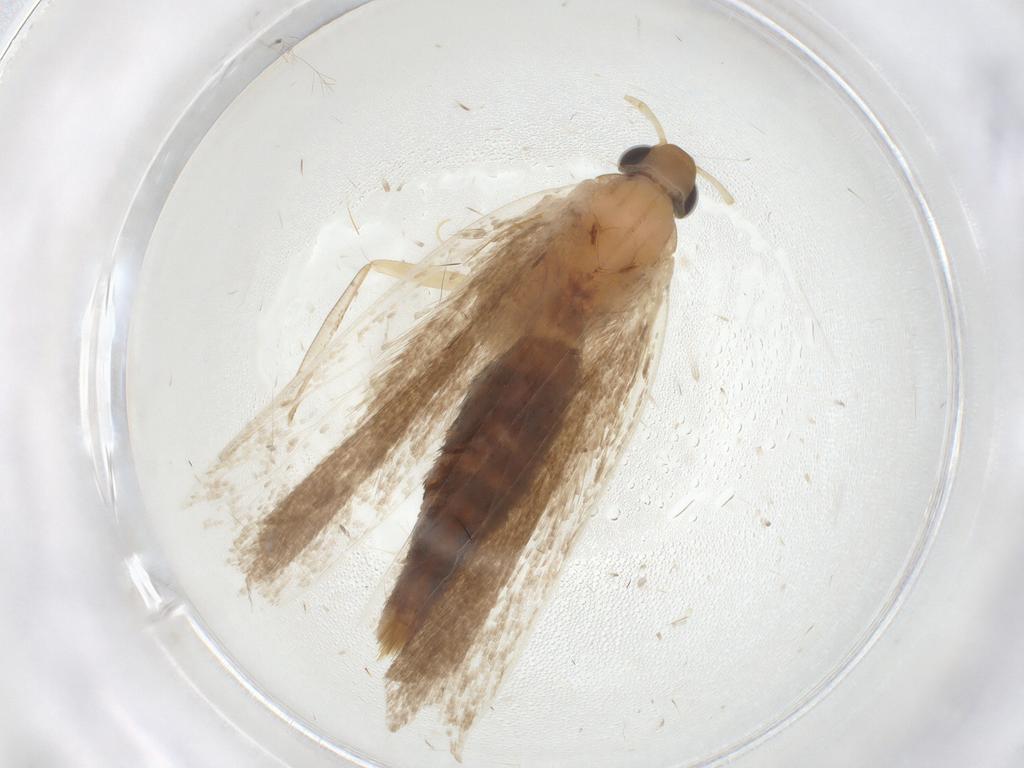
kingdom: Animalia
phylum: Arthropoda
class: Insecta
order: Lepidoptera
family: Gelechiidae
